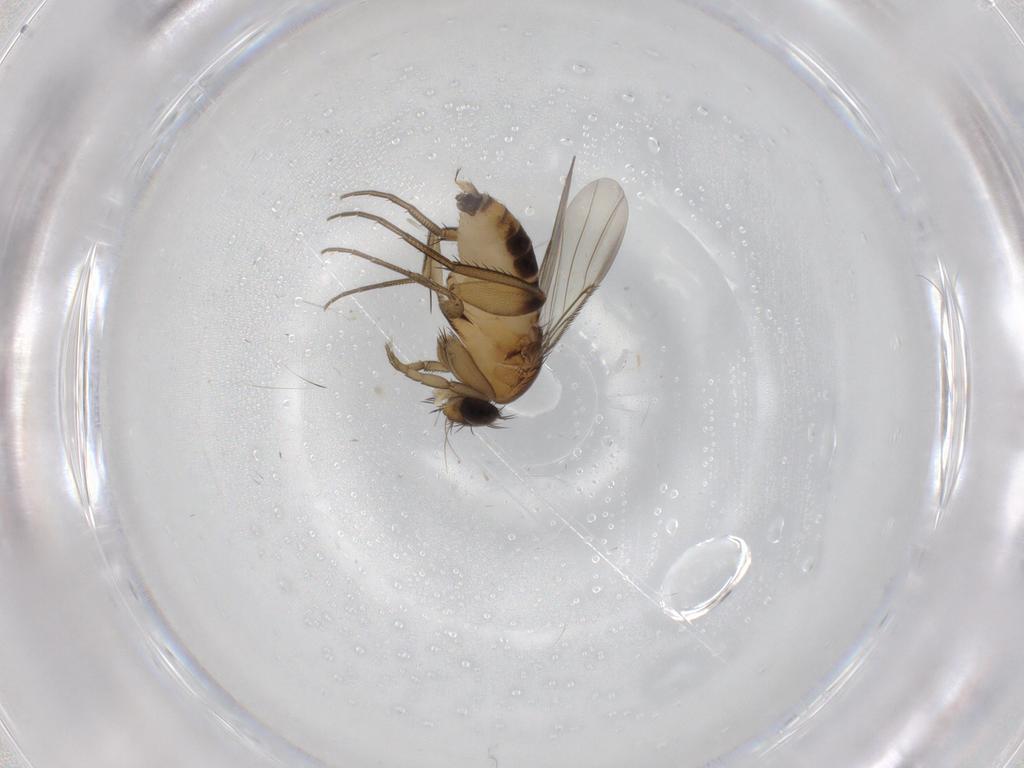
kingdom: Animalia
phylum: Arthropoda
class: Insecta
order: Diptera
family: Phoridae
